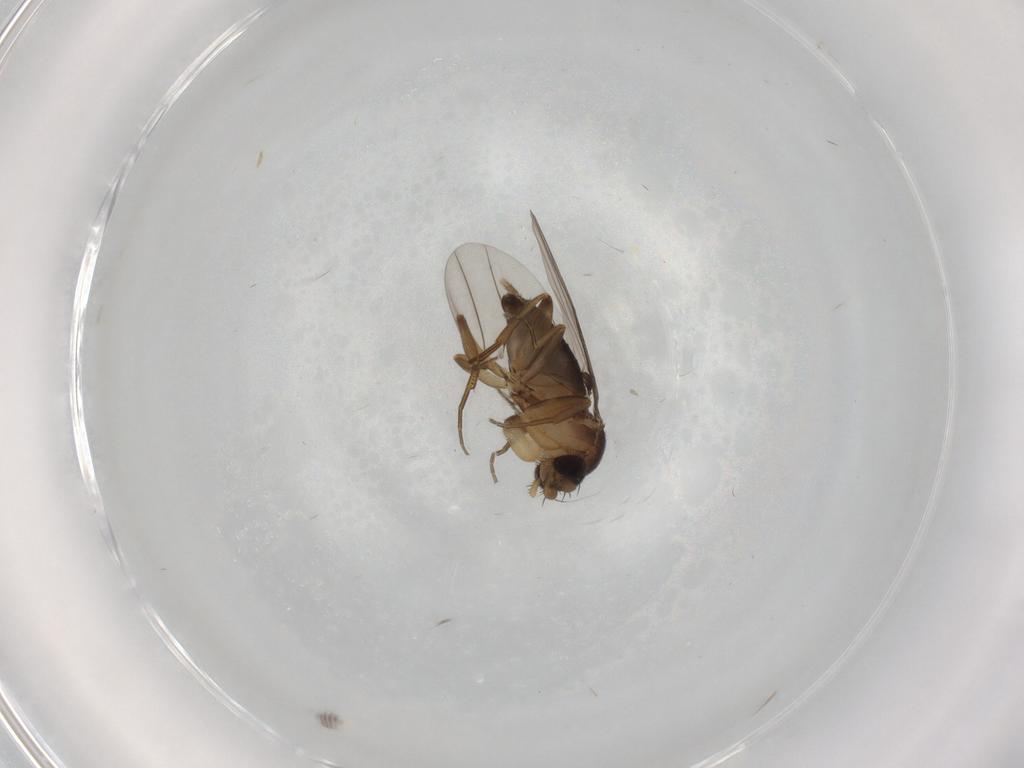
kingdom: Animalia
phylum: Arthropoda
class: Insecta
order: Diptera
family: Phoridae
